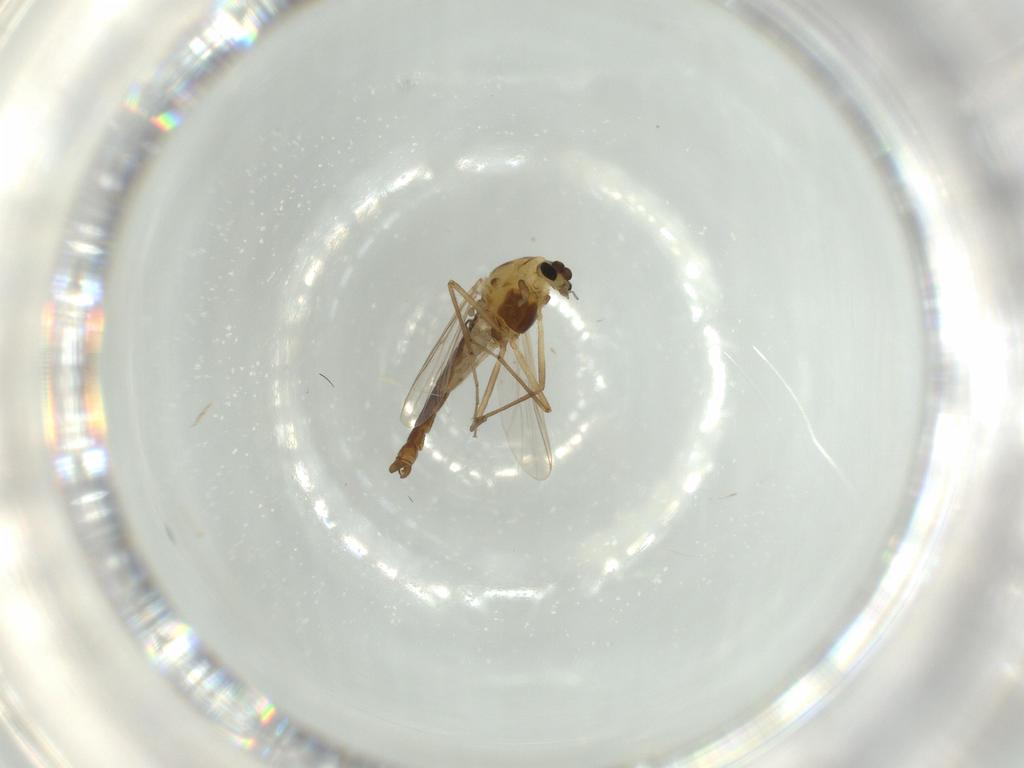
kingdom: Animalia
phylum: Arthropoda
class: Insecta
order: Diptera
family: Chironomidae
